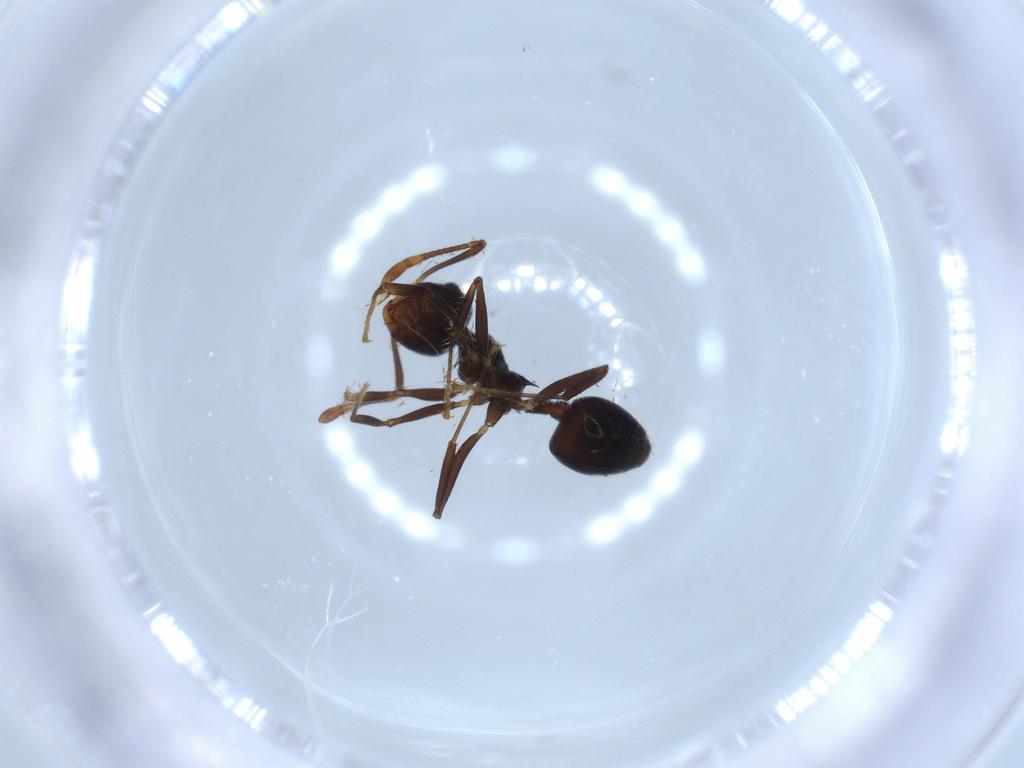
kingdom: Animalia
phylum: Arthropoda
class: Insecta
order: Hymenoptera
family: Formicidae
